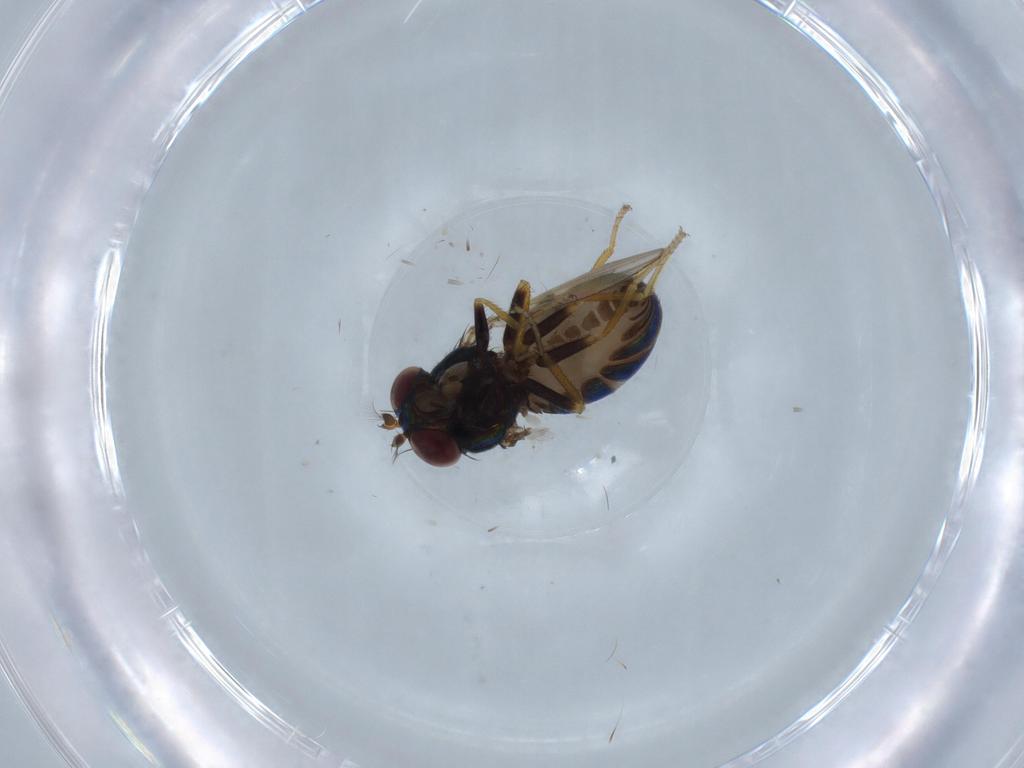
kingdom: Animalia
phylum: Arthropoda
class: Insecta
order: Diptera
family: Ephydridae
